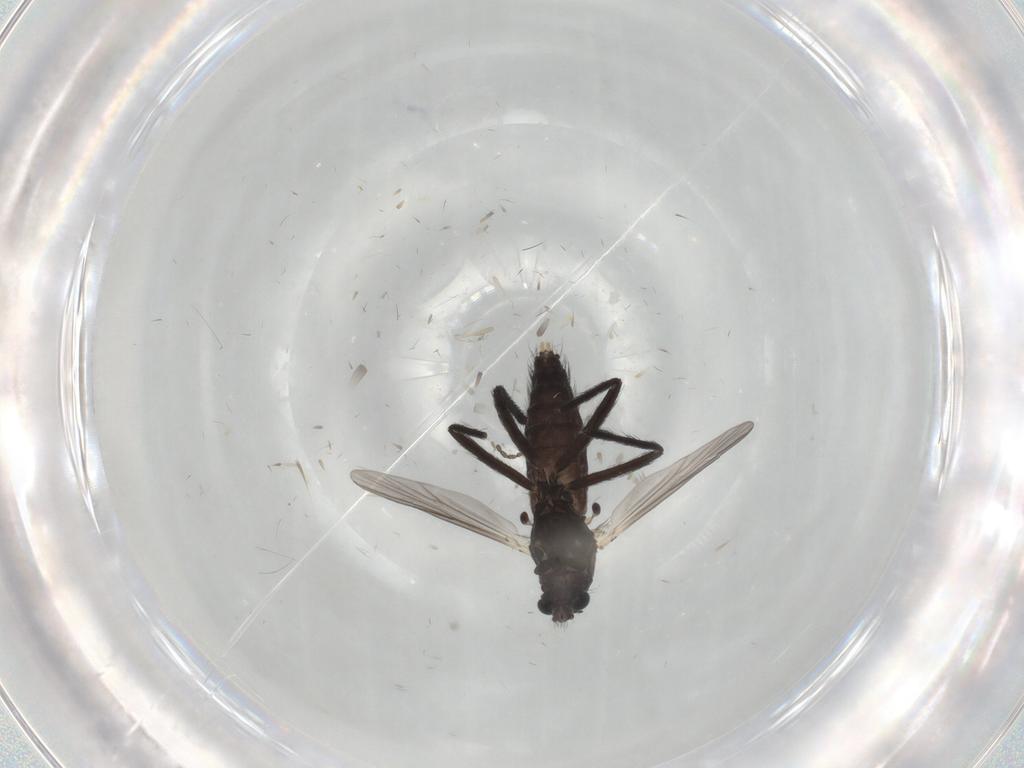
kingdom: Animalia
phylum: Arthropoda
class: Insecta
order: Diptera
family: Chironomidae
